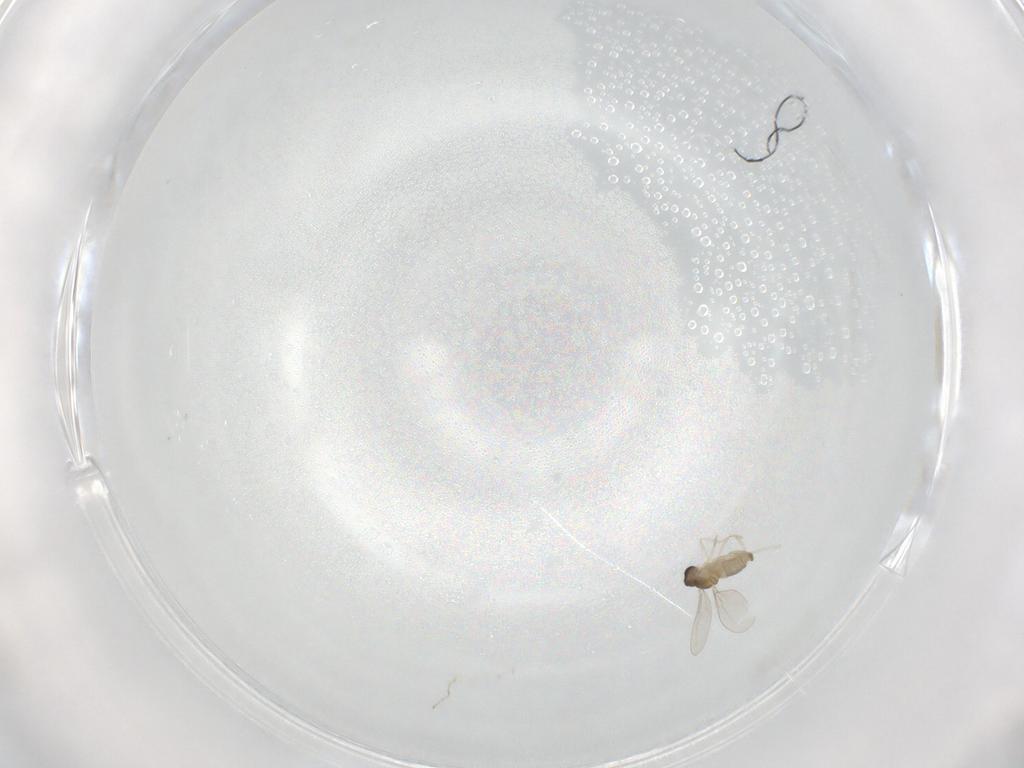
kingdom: Animalia
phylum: Arthropoda
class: Insecta
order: Diptera
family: Cecidomyiidae
